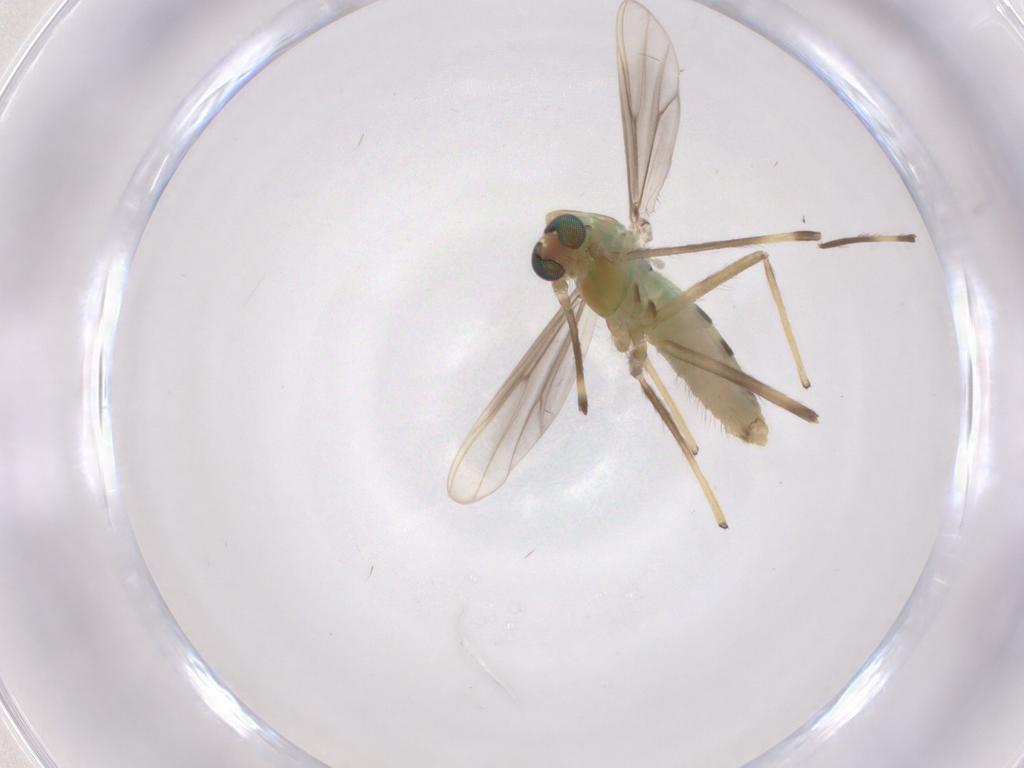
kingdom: Animalia
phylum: Arthropoda
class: Insecta
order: Diptera
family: Chironomidae
